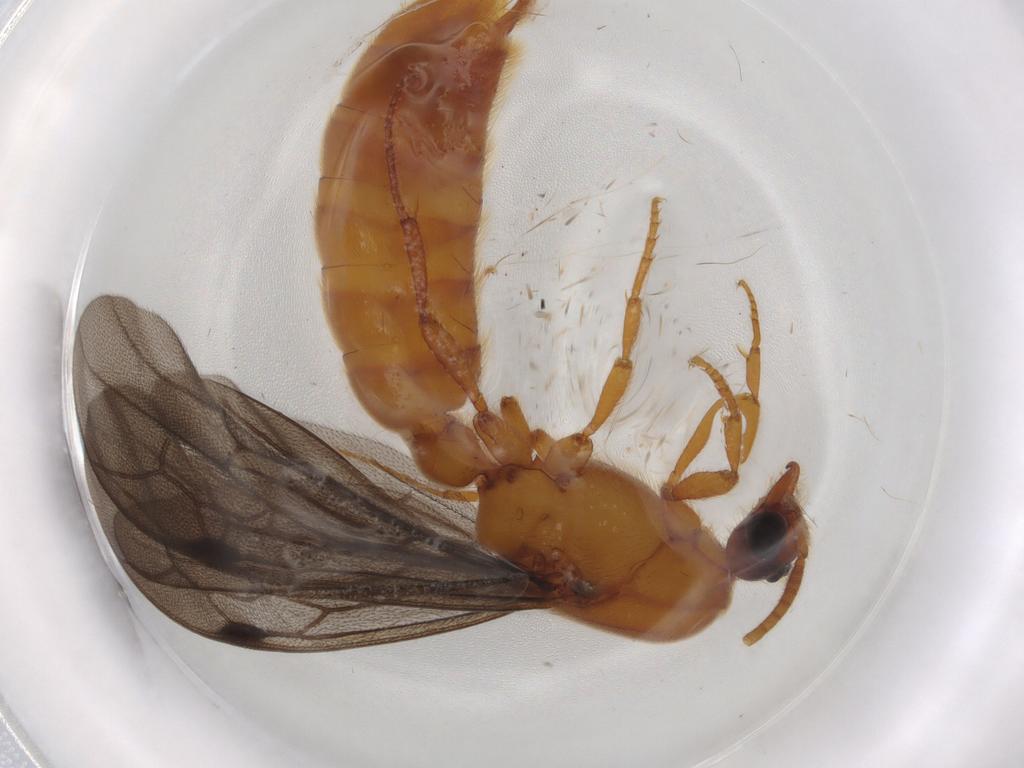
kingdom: Animalia
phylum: Arthropoda
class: Insecta
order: Hymenoptera
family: Formicidae
